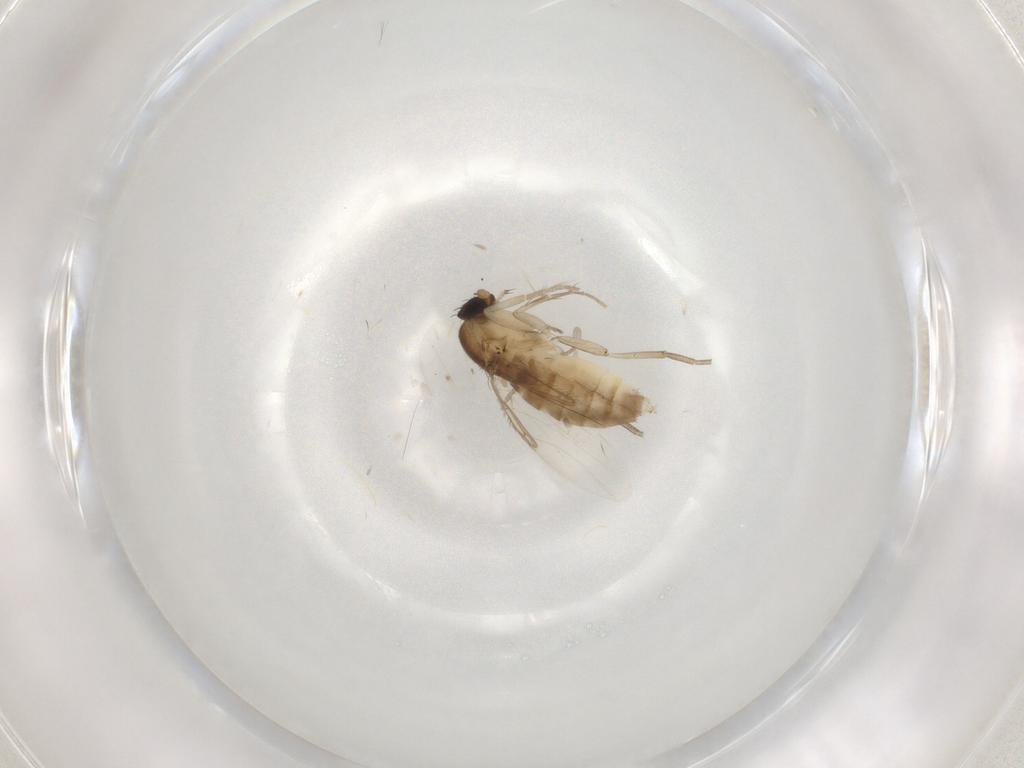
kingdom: Animalia
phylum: Arthropoda
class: Insecta
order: Diptera
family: Phoridae
